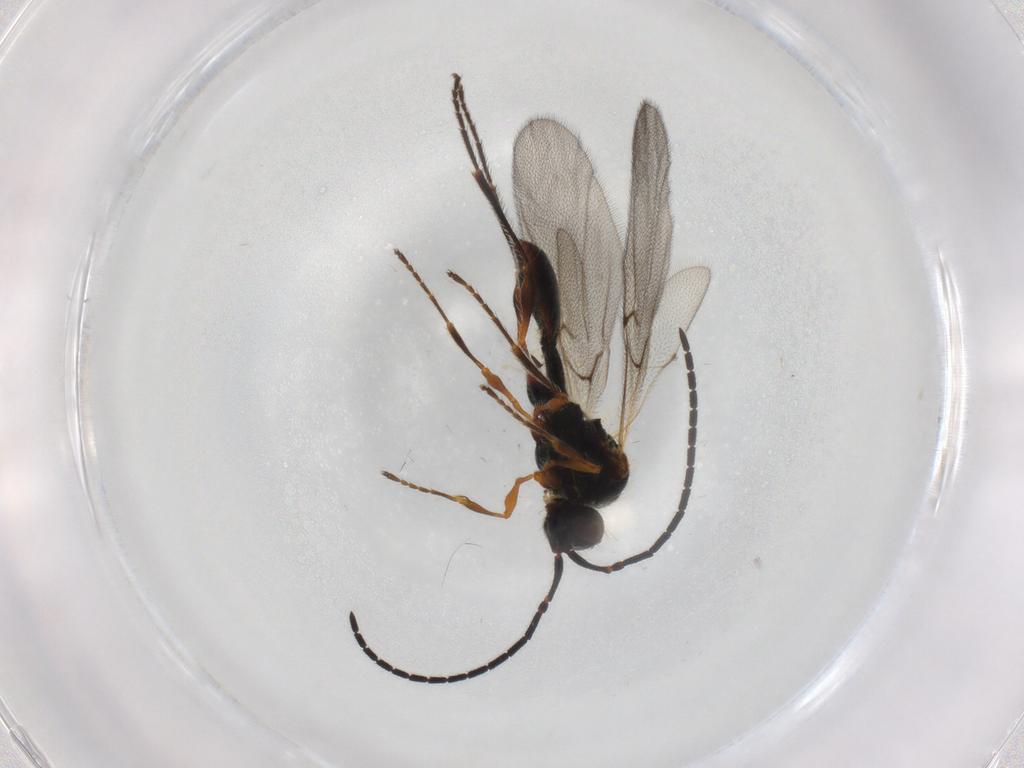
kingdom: Animalia
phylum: Arthropoda
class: Insecta
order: Hymenoptera
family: Diapriidae
